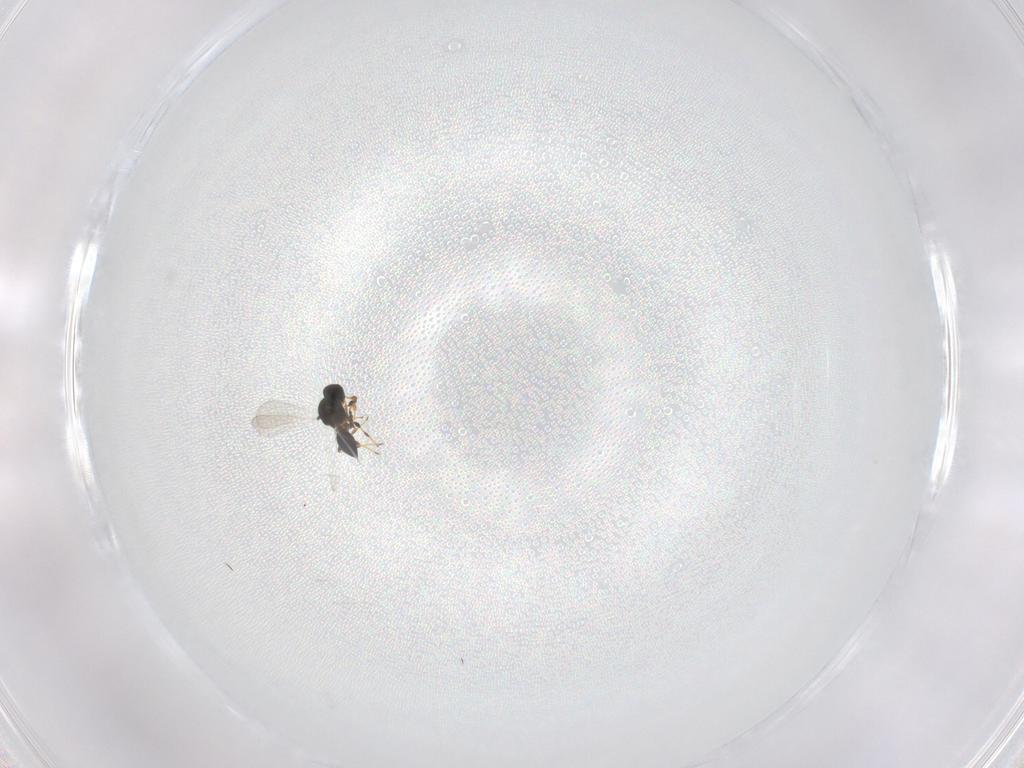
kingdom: Animalia
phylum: Arthropoda
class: Insecta
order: Hymenoptera
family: Platygastridae
